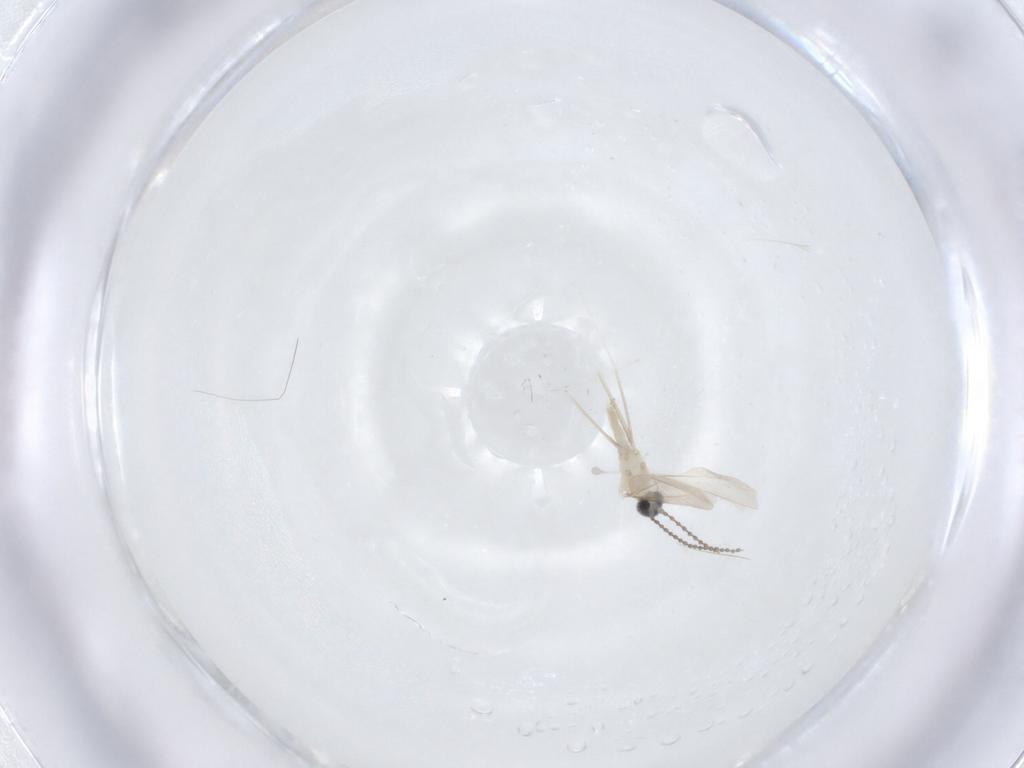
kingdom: Animalia
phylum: Arthropoda
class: Insecta
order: Diptera
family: Cecidomyiidae
